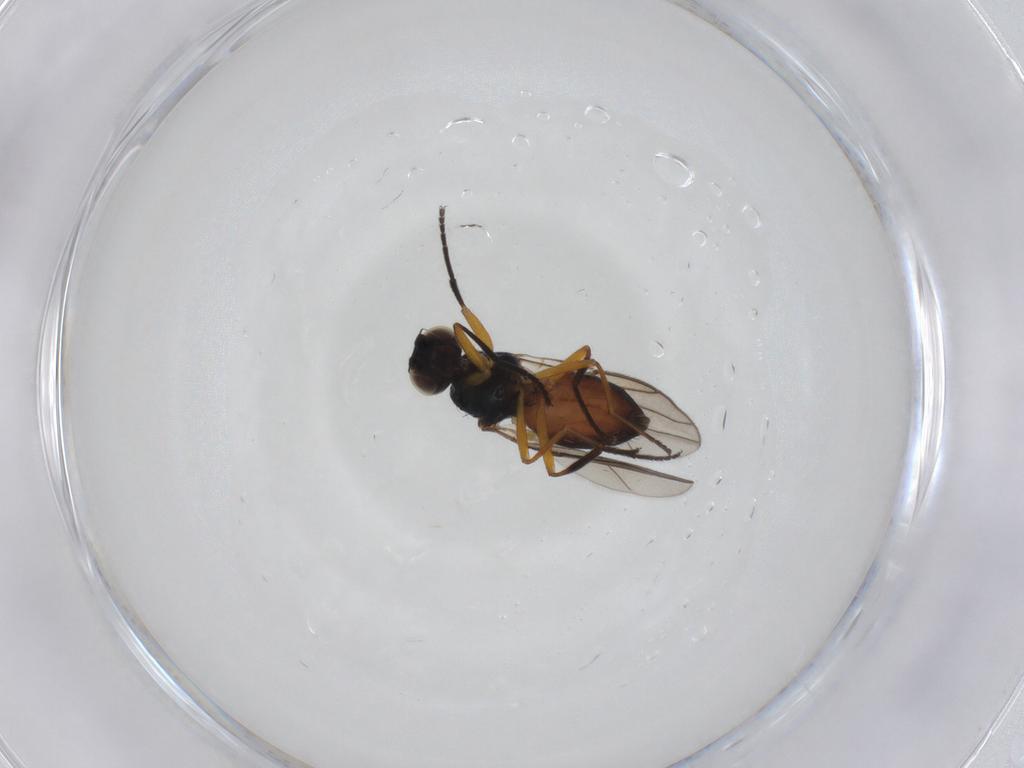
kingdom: Animalia
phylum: Arthropoda
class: Insecta
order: Diptera
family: Chloropidae
